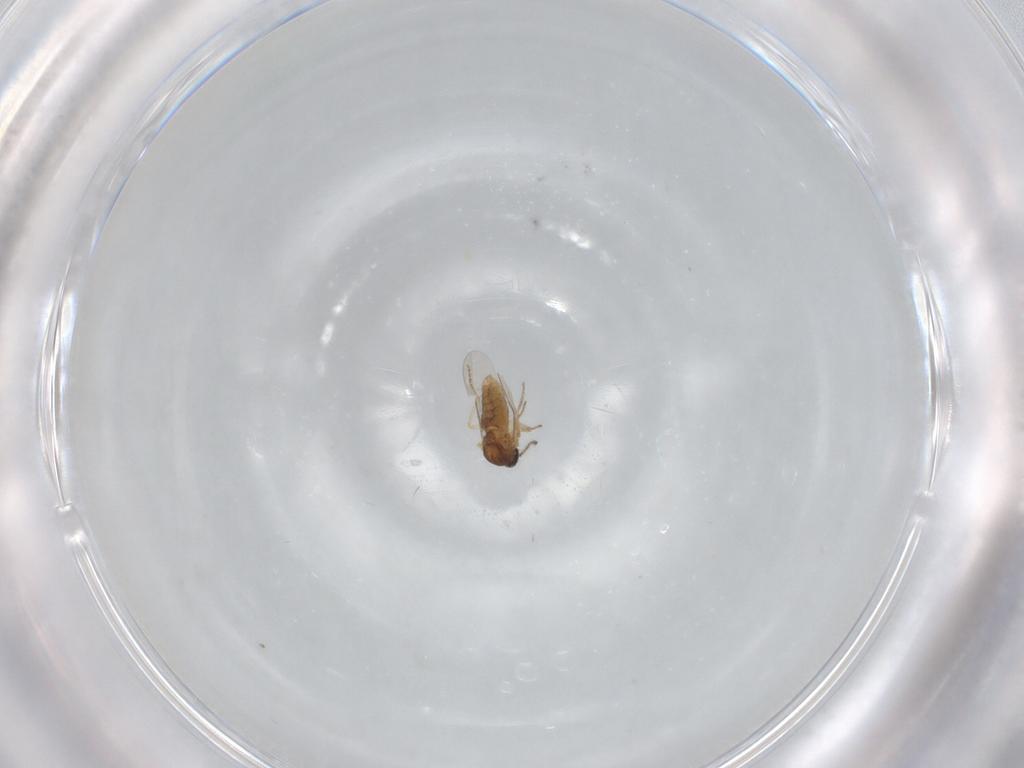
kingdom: Animalia
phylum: Arthropoda
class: Insecta
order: Diptera
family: Ceratopogonidae
